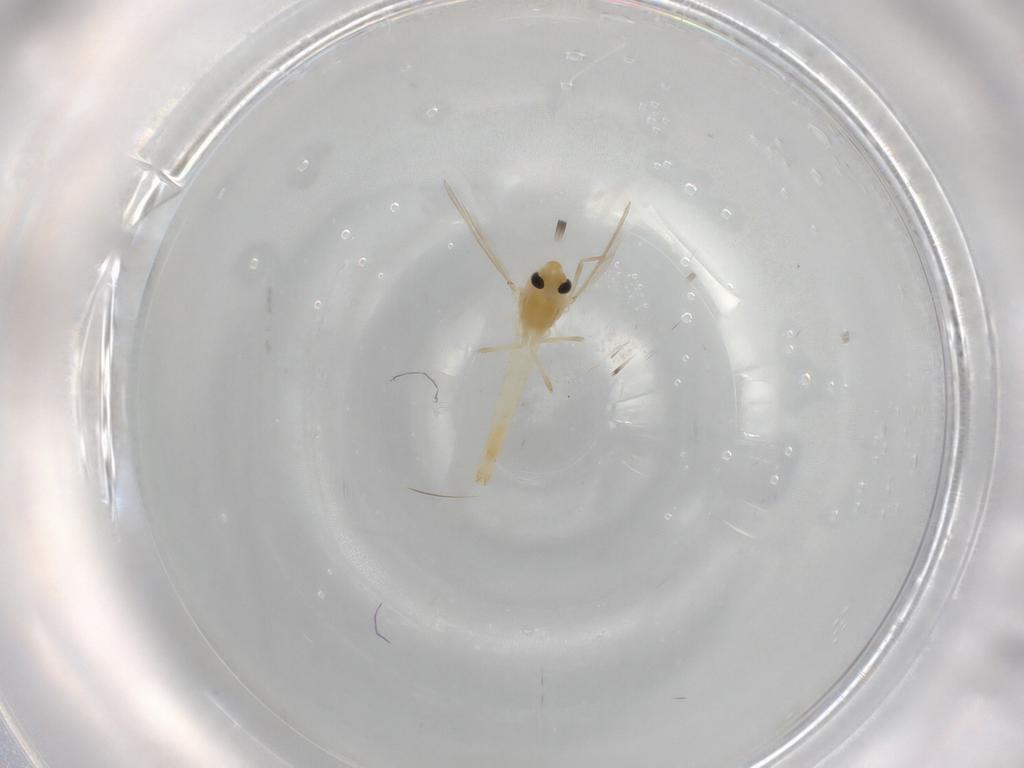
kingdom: Animalia
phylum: Arthropoda
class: Insecta
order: Diptera
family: Chironomidae
